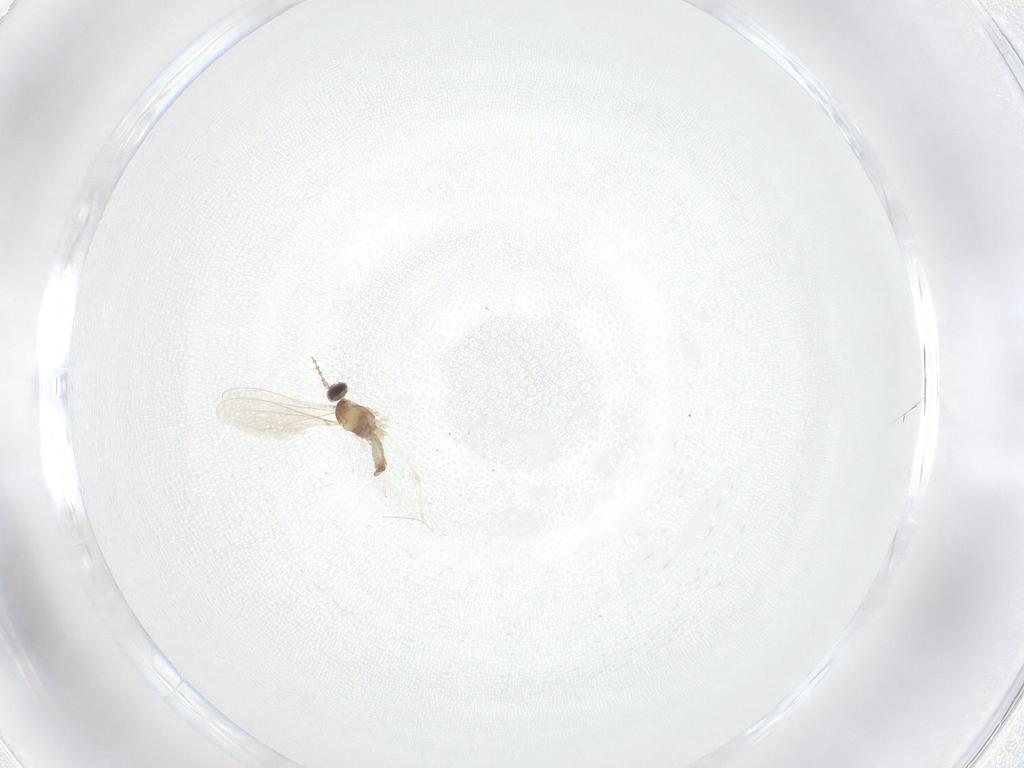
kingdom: Animalia
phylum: Arthropoda
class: Insecta
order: Diptera
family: Cecidomyiidae
